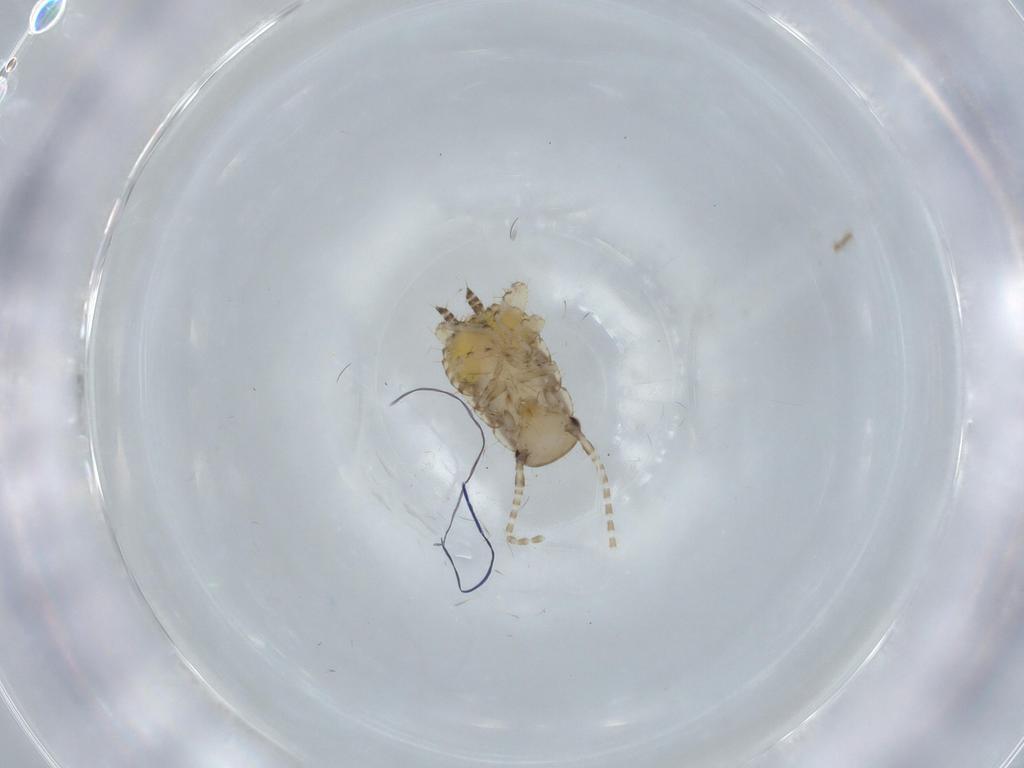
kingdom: Animalia
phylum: Arthropoda
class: Insecta
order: Blattodea
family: Ectobiidae
